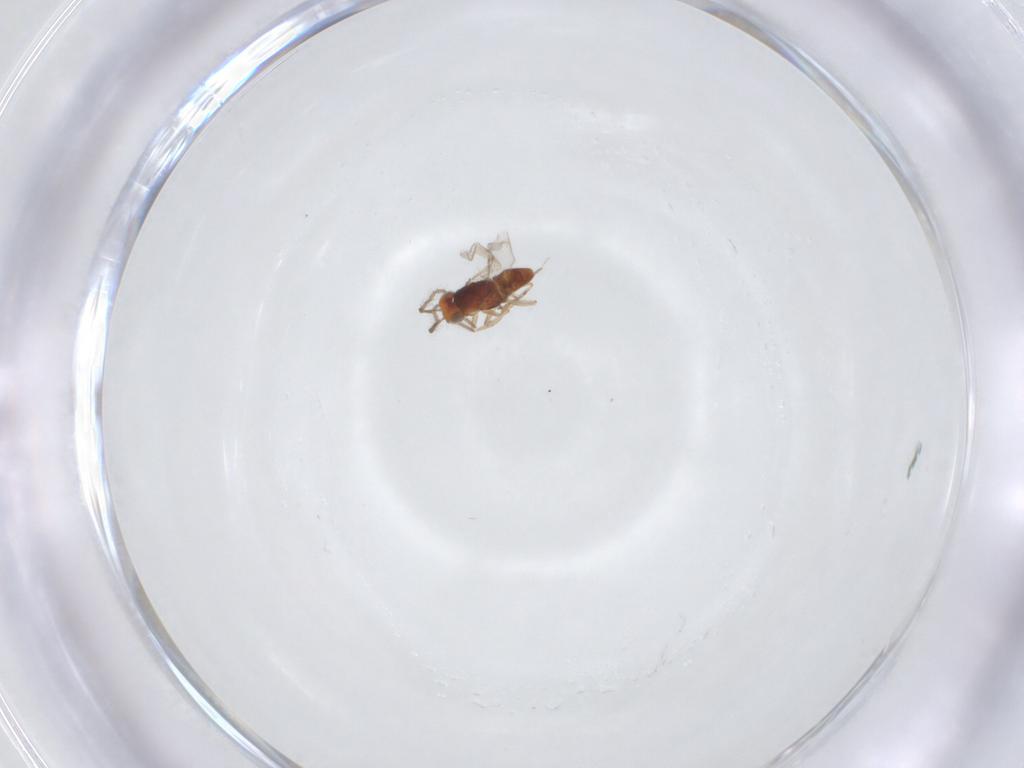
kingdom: Animalia
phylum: Arthropoda
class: Insecta
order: Hymenoptera
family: Encyrtidae
